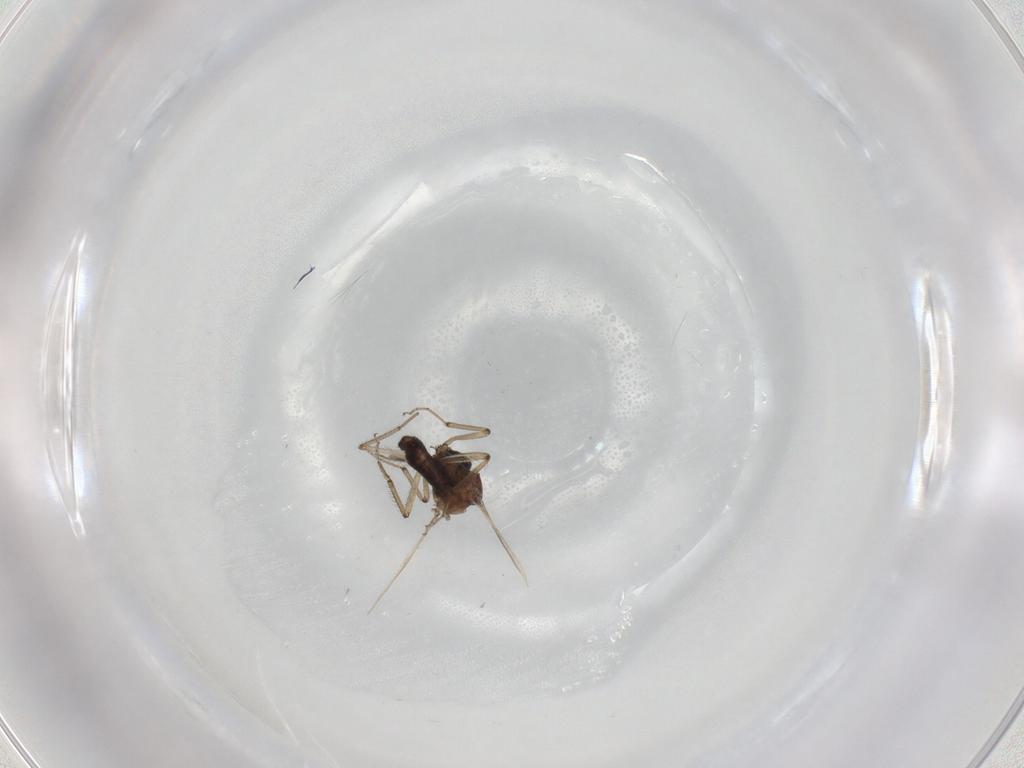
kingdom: Animalia
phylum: Arthropoda
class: Insecta
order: Diptera
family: Ceratopogonidae
